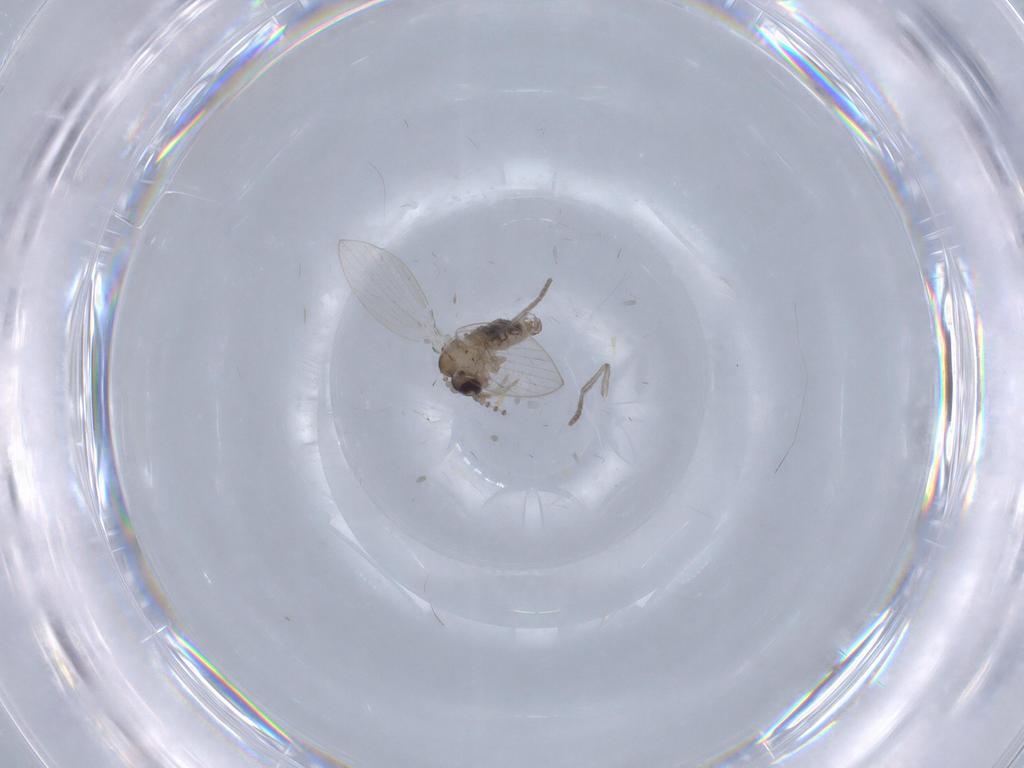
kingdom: Animalia
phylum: Arthropoda
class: Insecta
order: Diptera
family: Psychodidae
